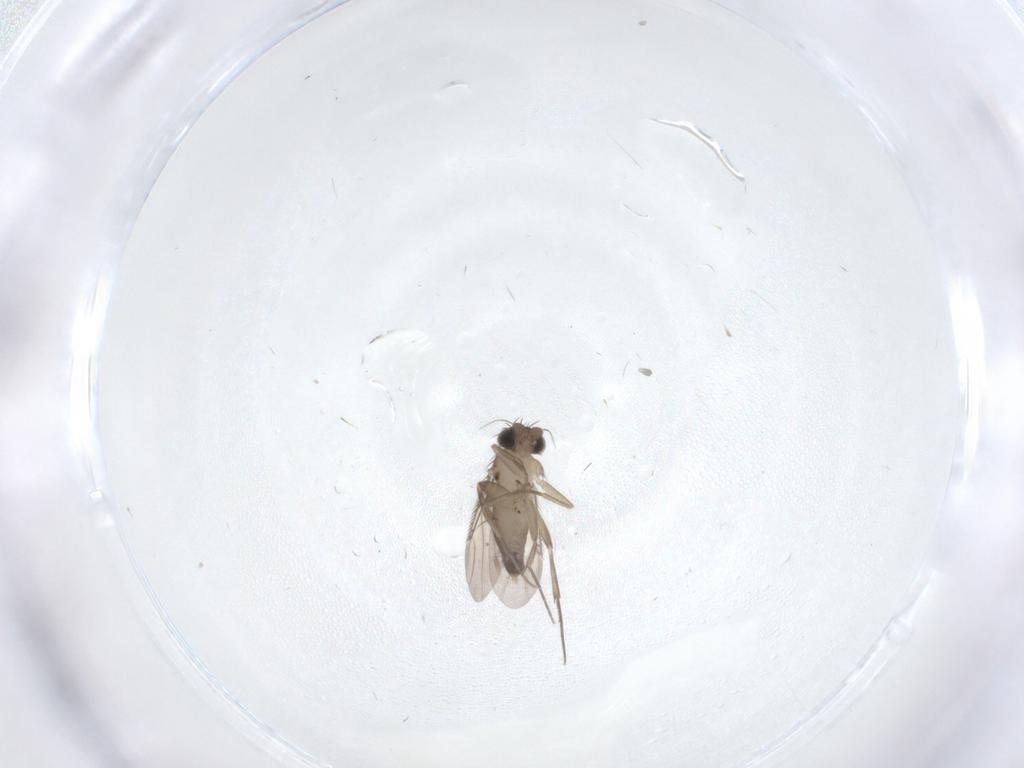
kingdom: Animalia
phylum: Arthropoda
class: Insecta
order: Diptera
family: Phoridae
